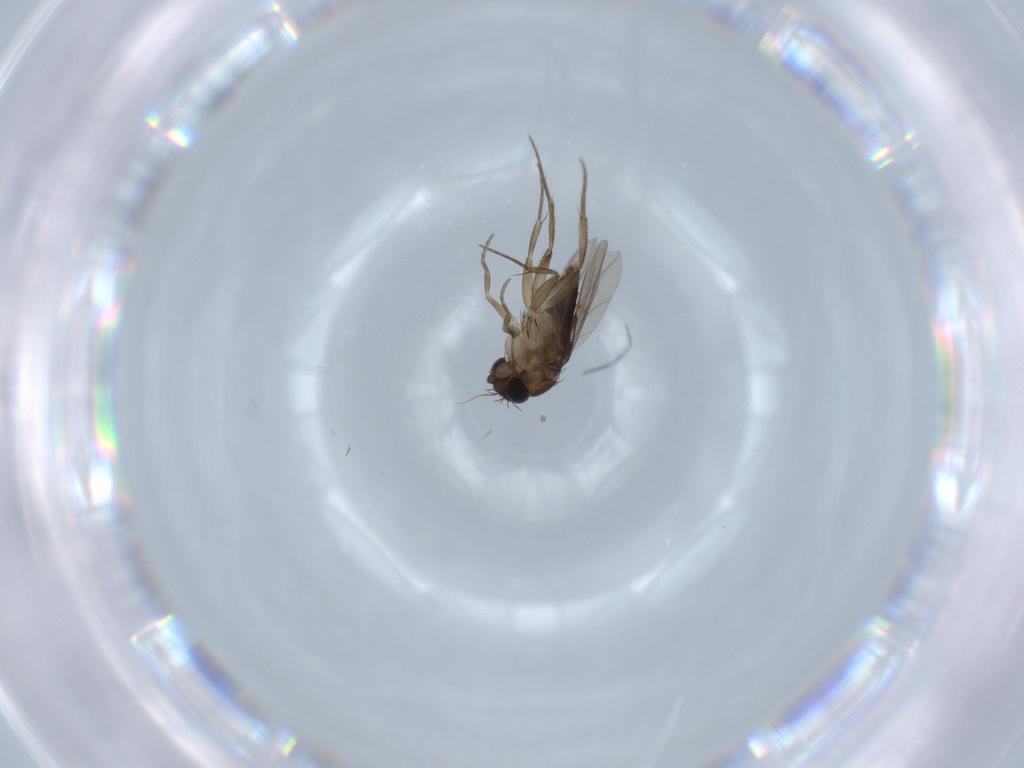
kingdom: Animalia
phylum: Arthropoda
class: Insecta
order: Diptera
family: Phoridae
